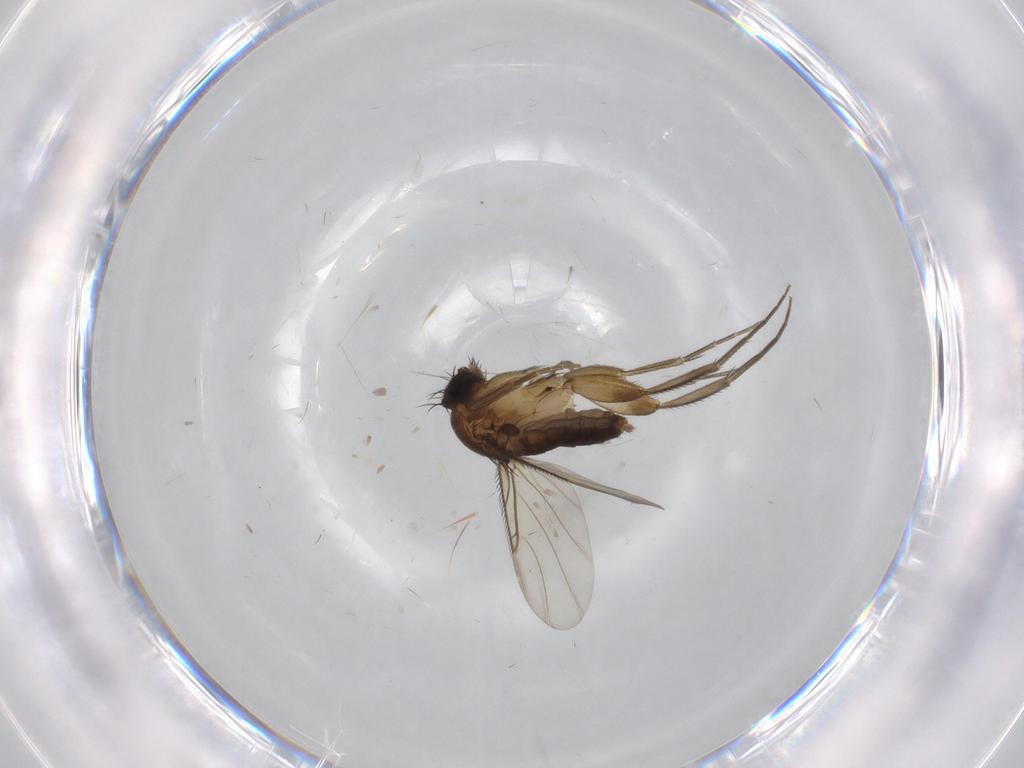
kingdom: Animalia
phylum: Arthropoda
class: Insecta
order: Diptera
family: Phoridae
